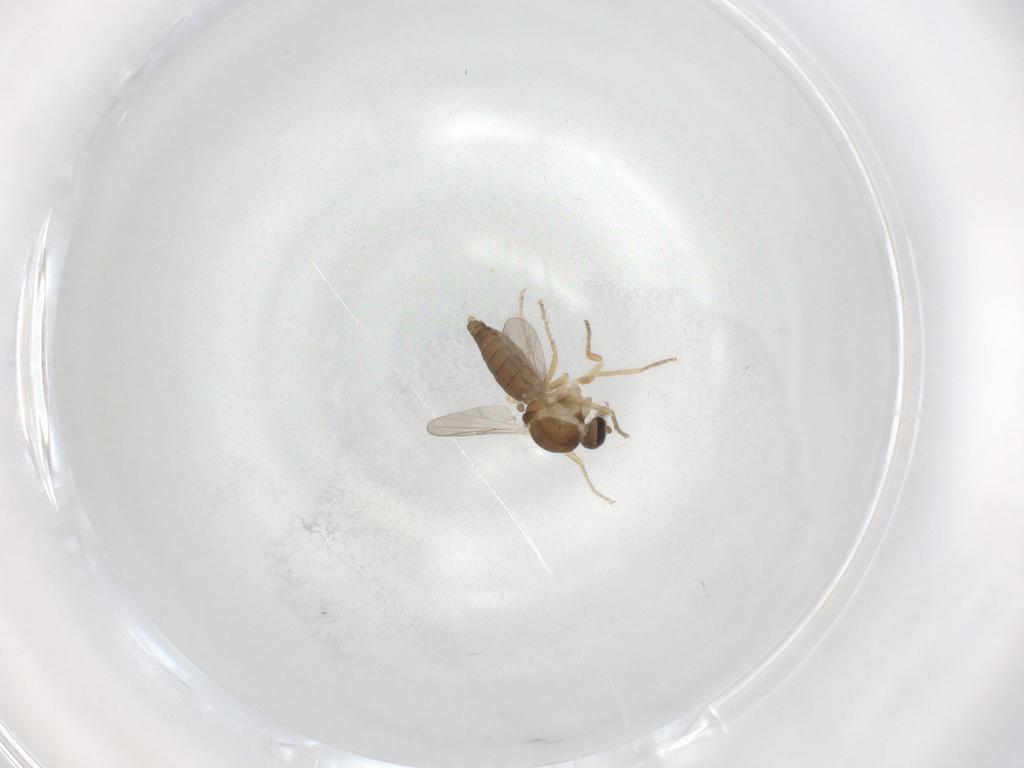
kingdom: Animalia
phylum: Arthropoda
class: Insecta
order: Diptera
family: Ceratopogonidae
